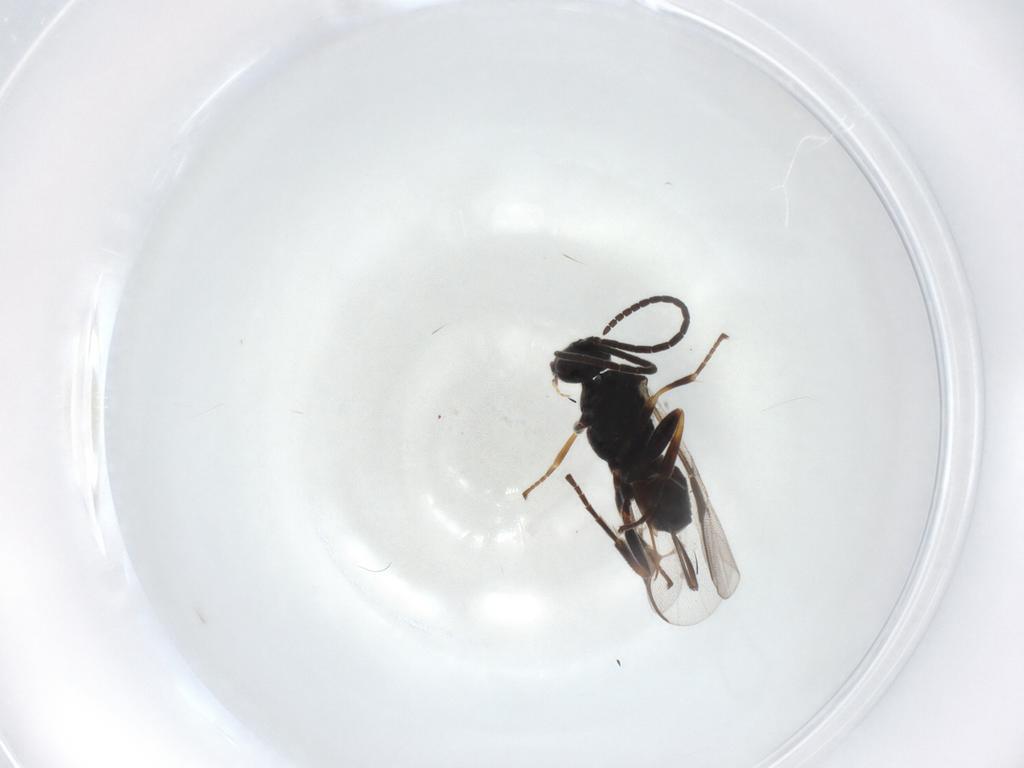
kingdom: Animalia
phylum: Arthropoda
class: Insecta
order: Hymenoptera
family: Braconidae
